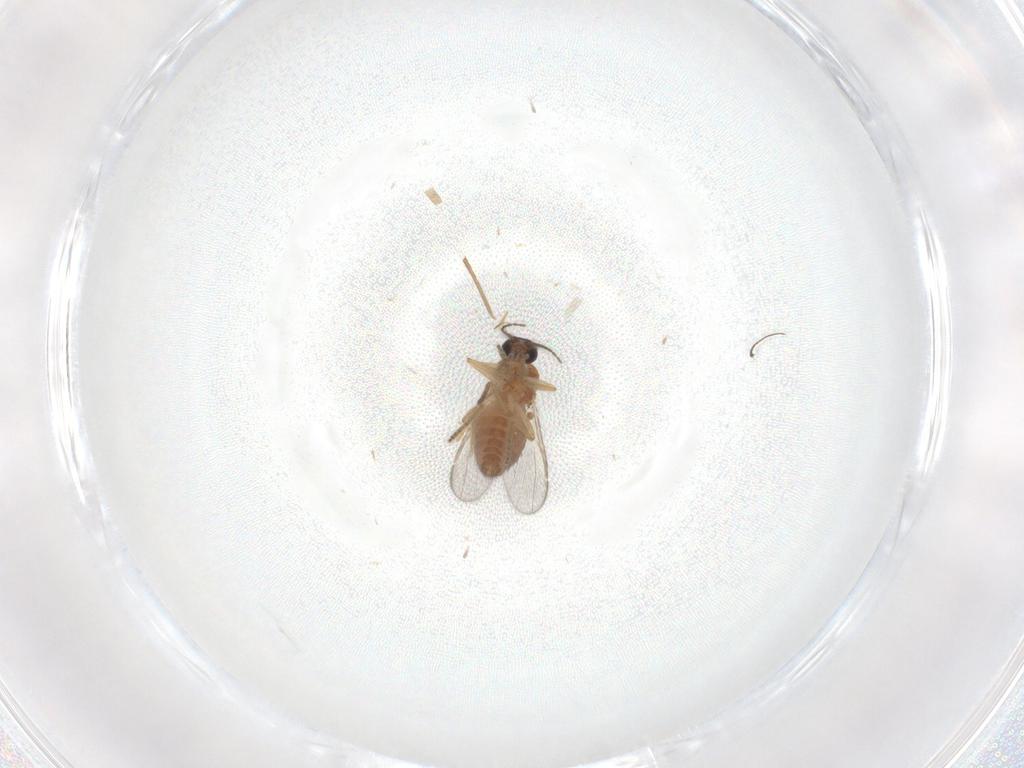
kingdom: Animalia
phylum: Arthropoda
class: Insecta
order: Diptera
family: Ceratopogonidae
